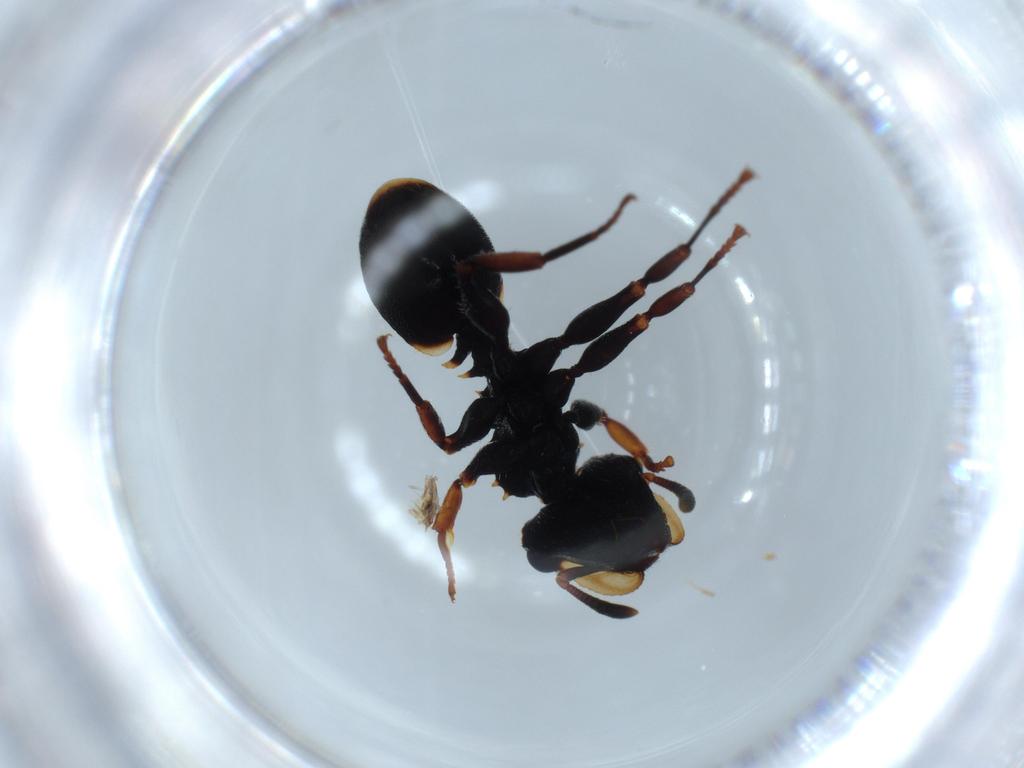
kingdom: Animalia
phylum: Arthropoda
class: Insecta
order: Hymenoptera
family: Formicidae
